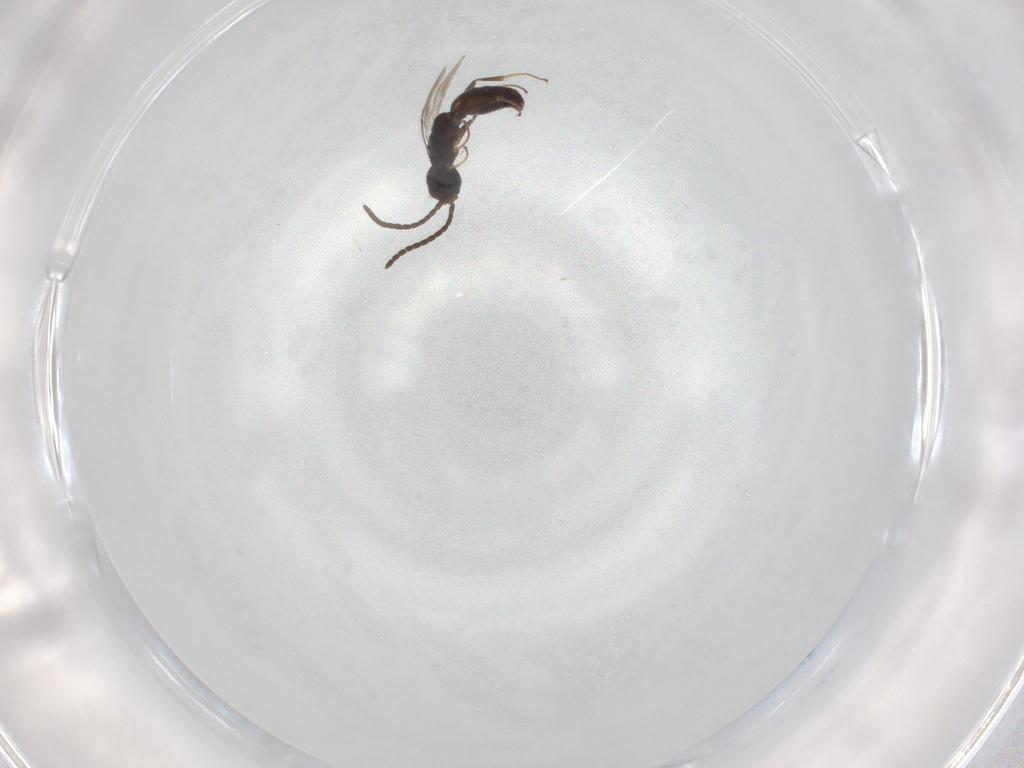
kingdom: Animalia
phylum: Arthropoda
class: Insecta
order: Hymenoptera
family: Bethylidae
